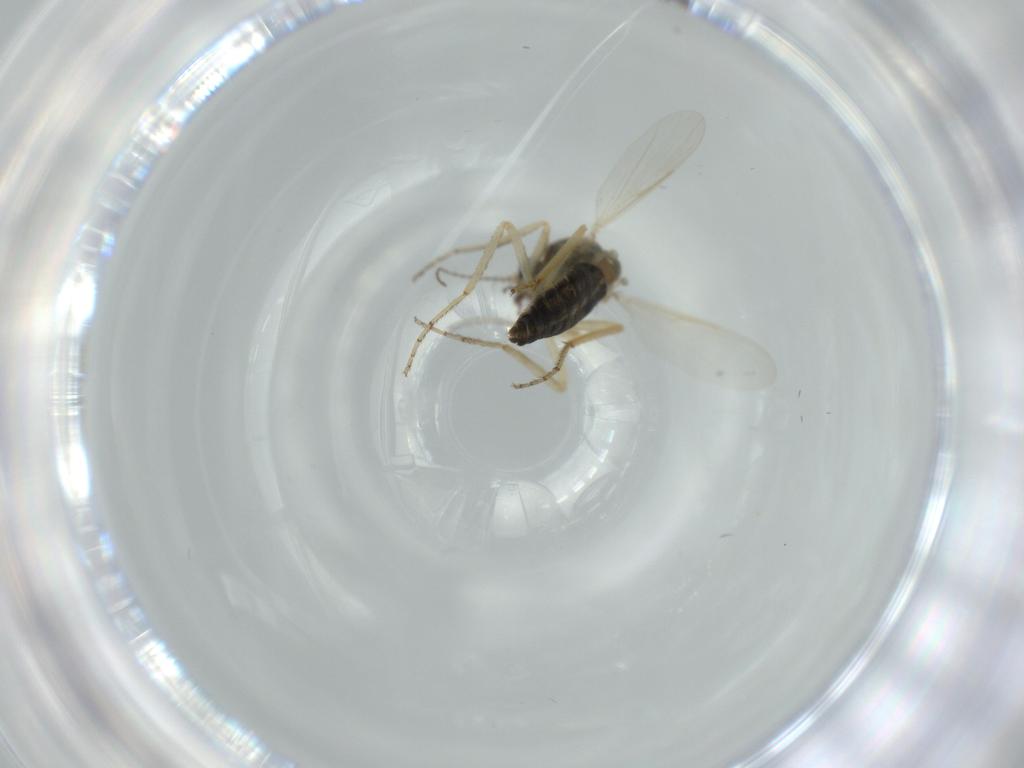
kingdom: Animalia
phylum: Arthropoda
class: Insecta
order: Diptera
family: Ceratopogonidae
